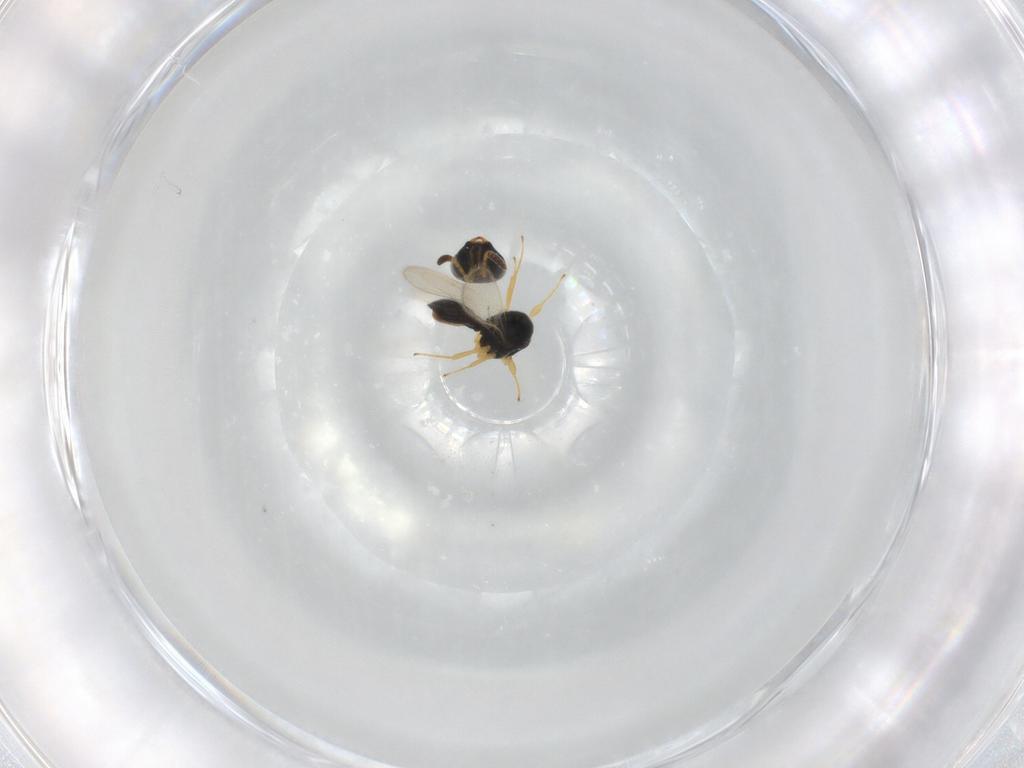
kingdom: Animalia
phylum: Arthropoda
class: Insecta
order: Hymenoptera
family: Scelionidae
